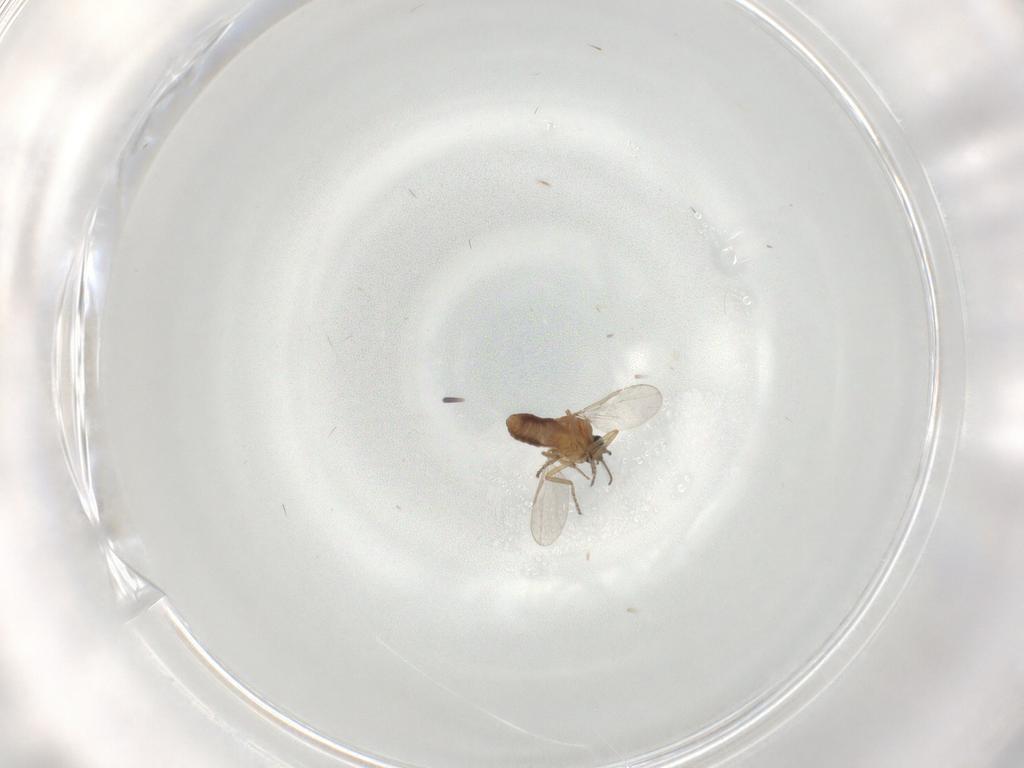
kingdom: Animalia
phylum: Arthropoda
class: Insecta
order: Diptera
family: Ceratopogonidae
